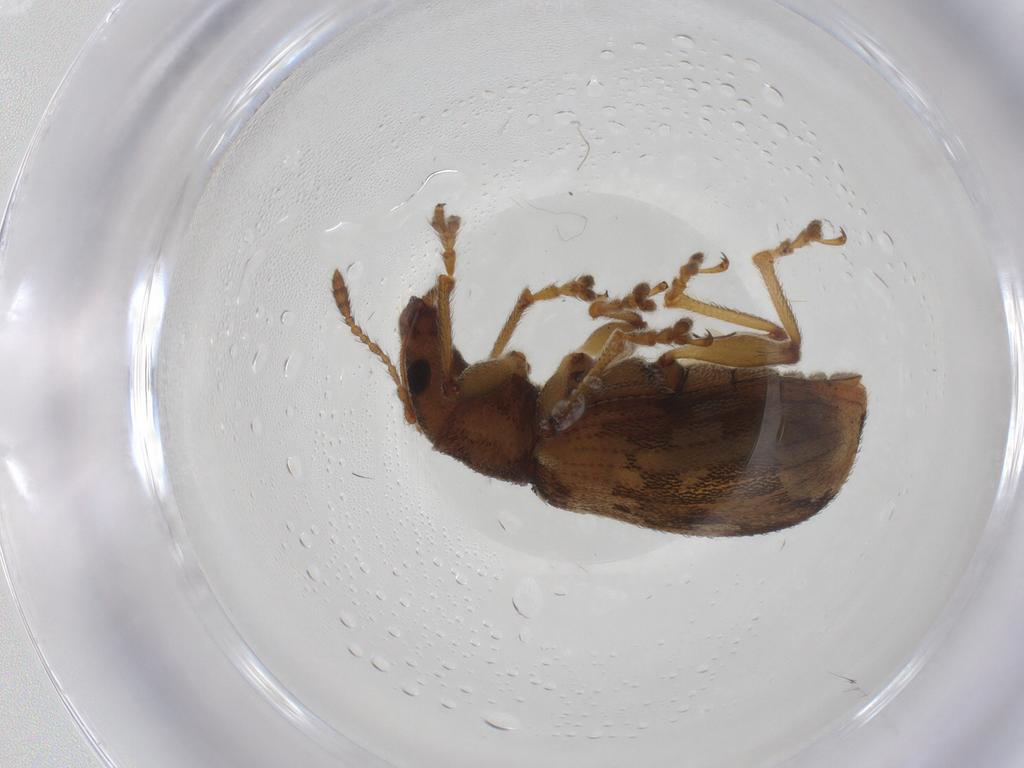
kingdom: Animalia
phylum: Arthropoda
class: Insecta
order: Coleoptera
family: Curculionidae
